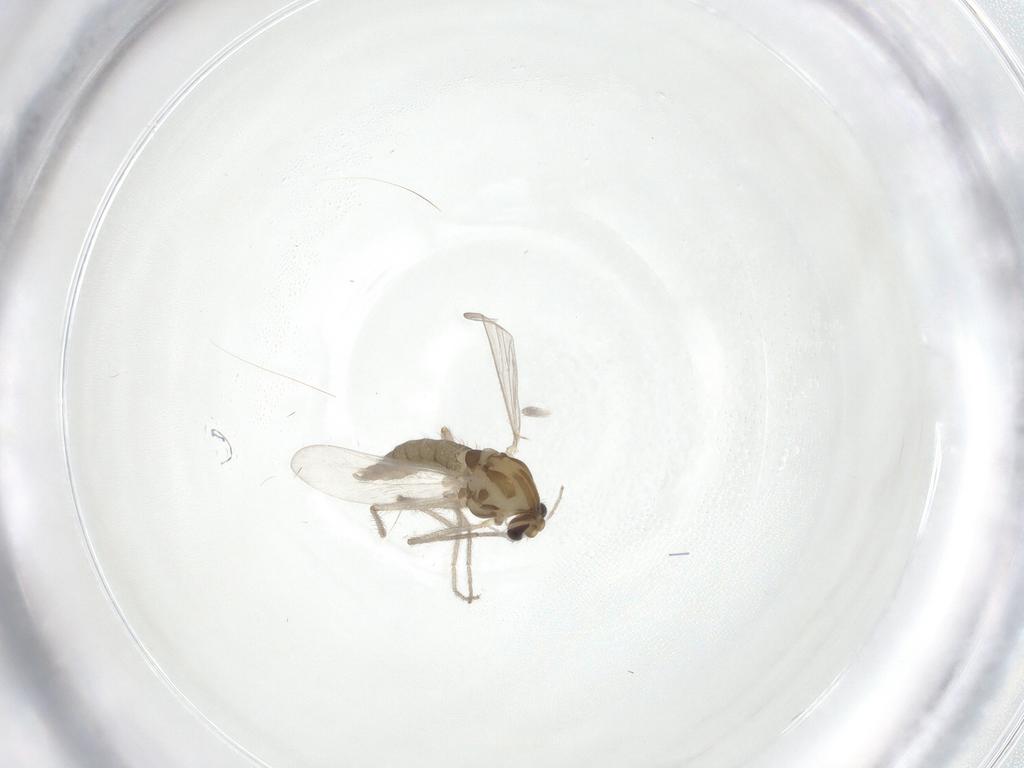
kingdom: Animalia
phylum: Arthropoda
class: Insecta
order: Diptera
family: Chironomidae
